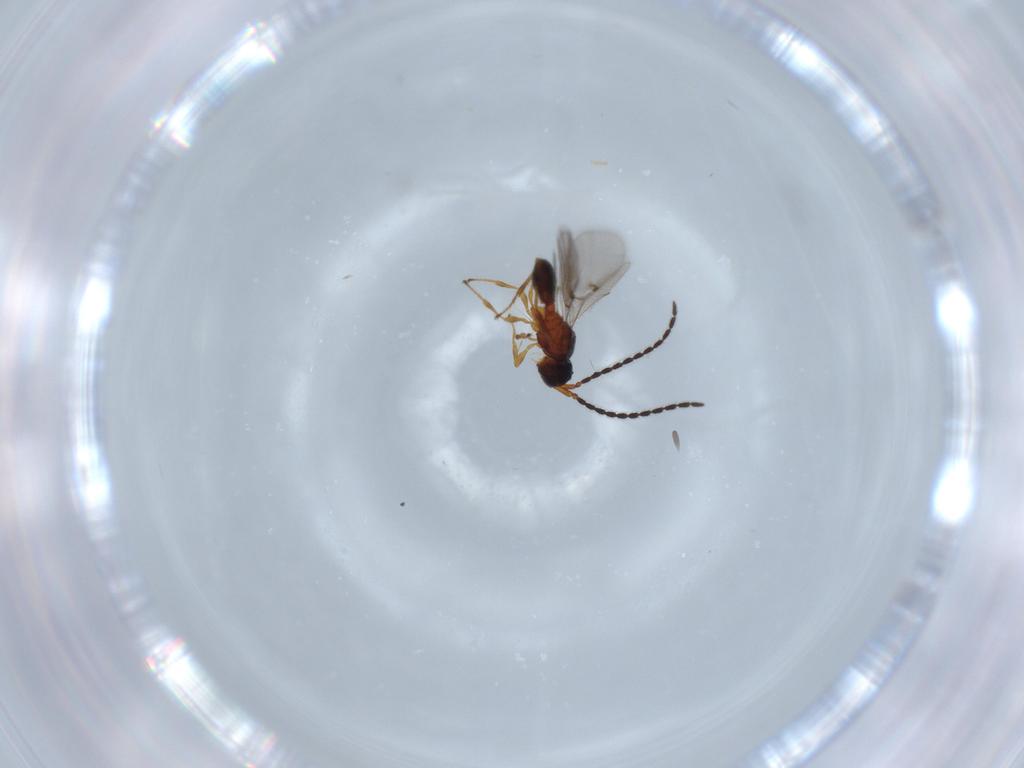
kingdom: Animalia
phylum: Arthropoda
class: Insecta
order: Hymenoptera
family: Diapriidae
